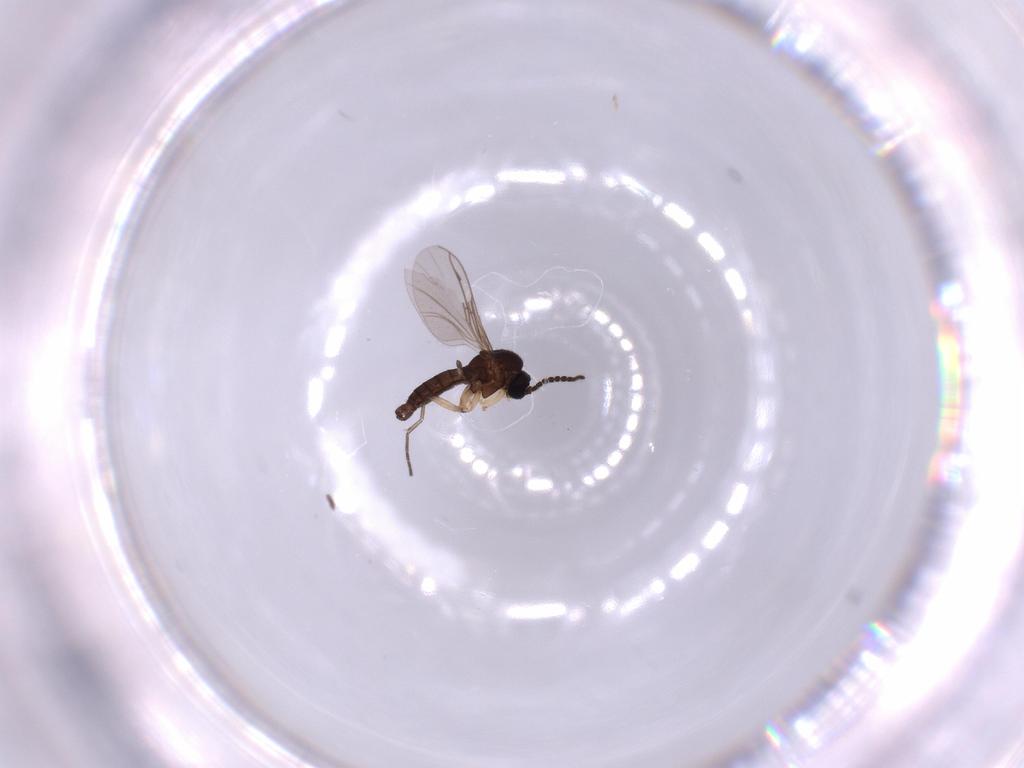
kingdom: Animalia
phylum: Arthropoda
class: Insecta
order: Diptera
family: Sciaridae
